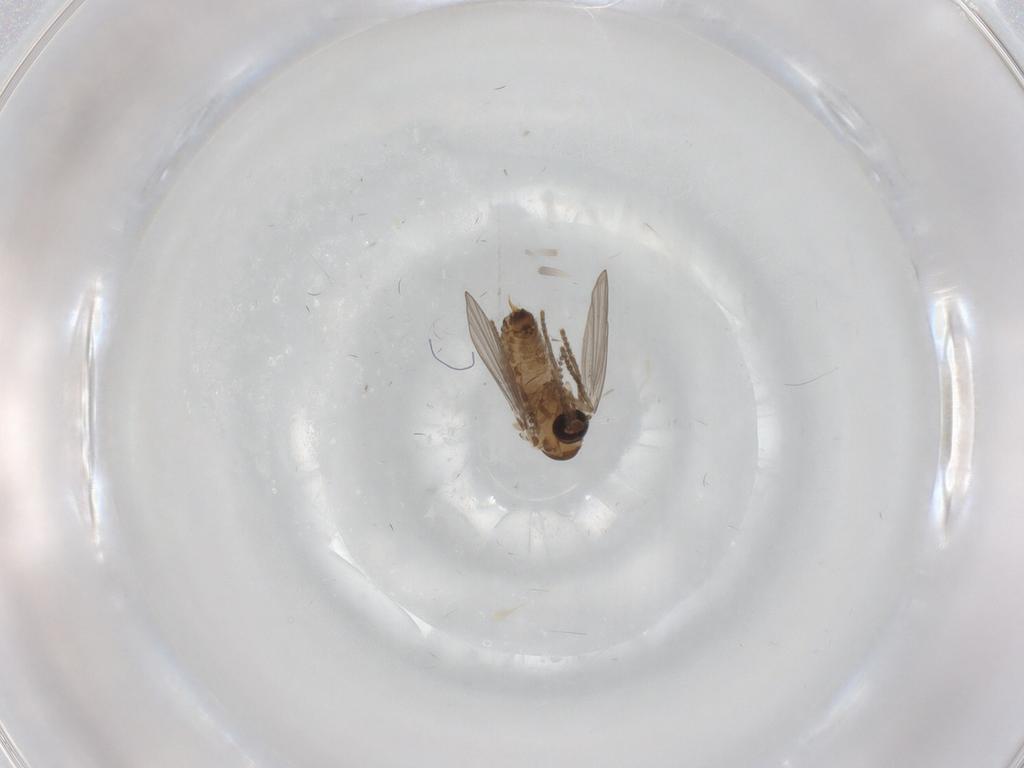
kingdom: Animalia
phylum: Arthropoda
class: Insecta
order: Diptera
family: Psychodidae
